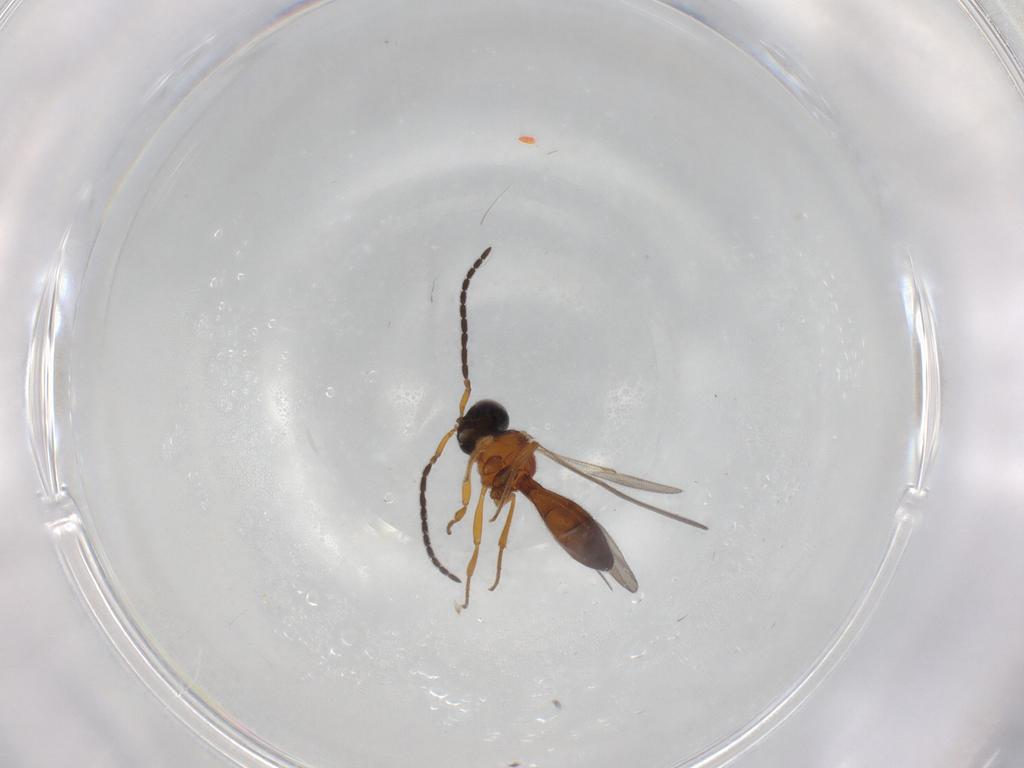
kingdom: Animalia
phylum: Arthropoda
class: Insecta
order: Hymenoptera
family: Scelionidae
